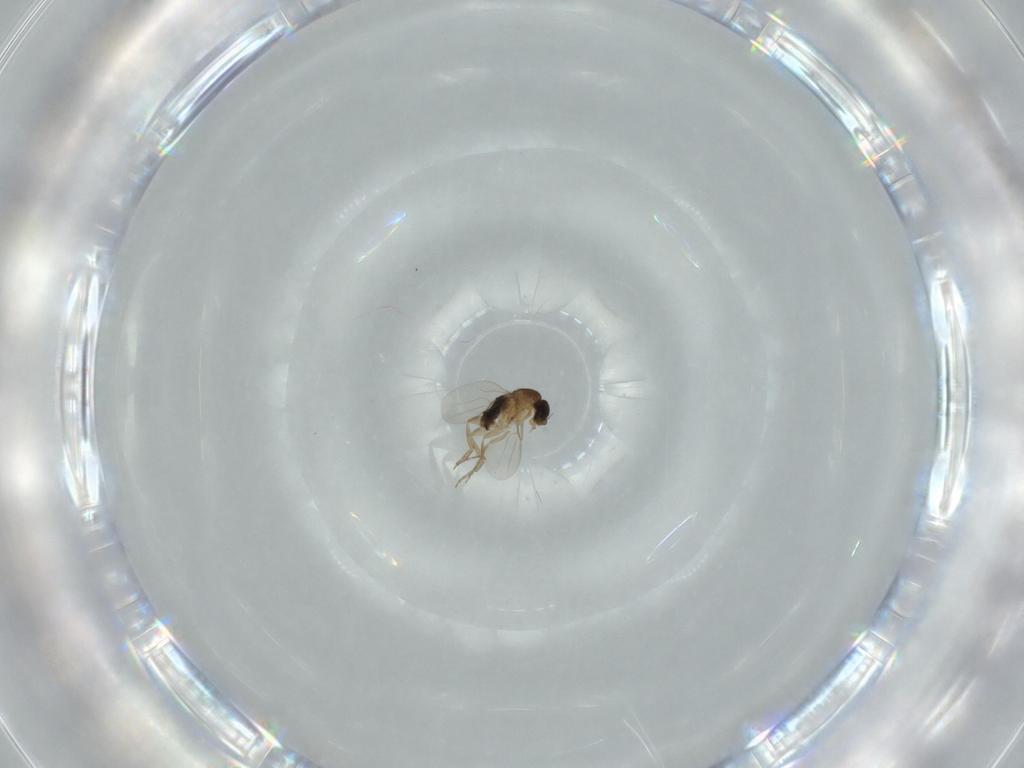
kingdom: Animalia
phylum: Arthropoda
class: Insecta
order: Diptera
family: Phoridae
